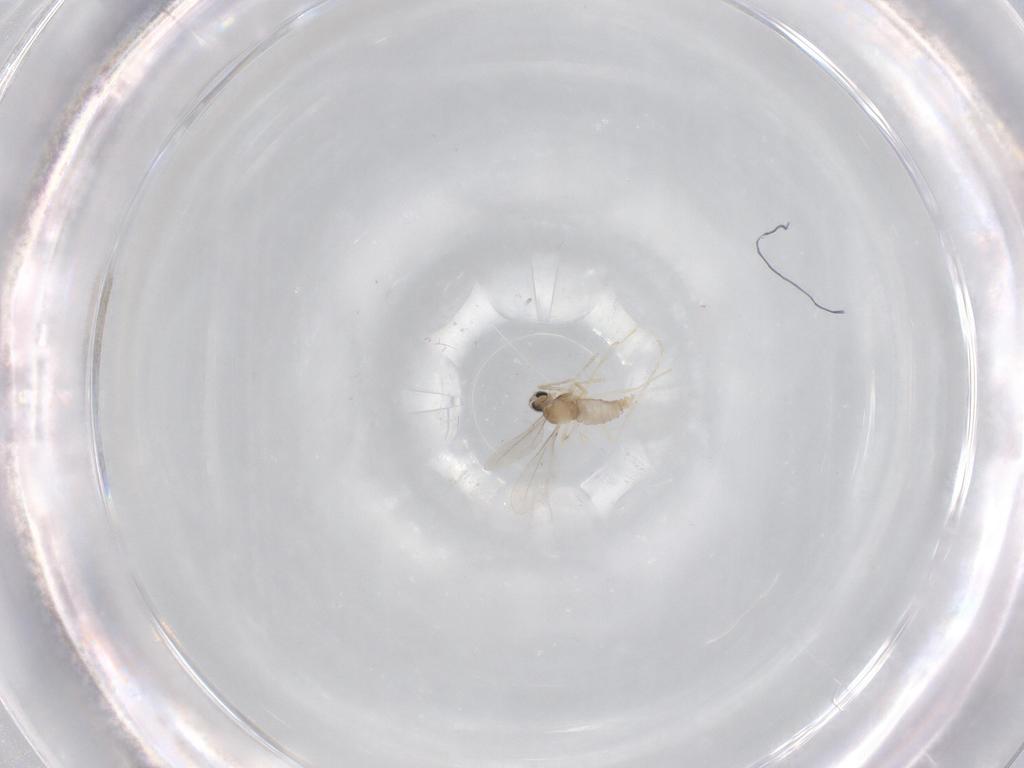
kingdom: Animalia
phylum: Arthropoda
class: Insecta
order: Diptera
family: Cecidomyiidae
